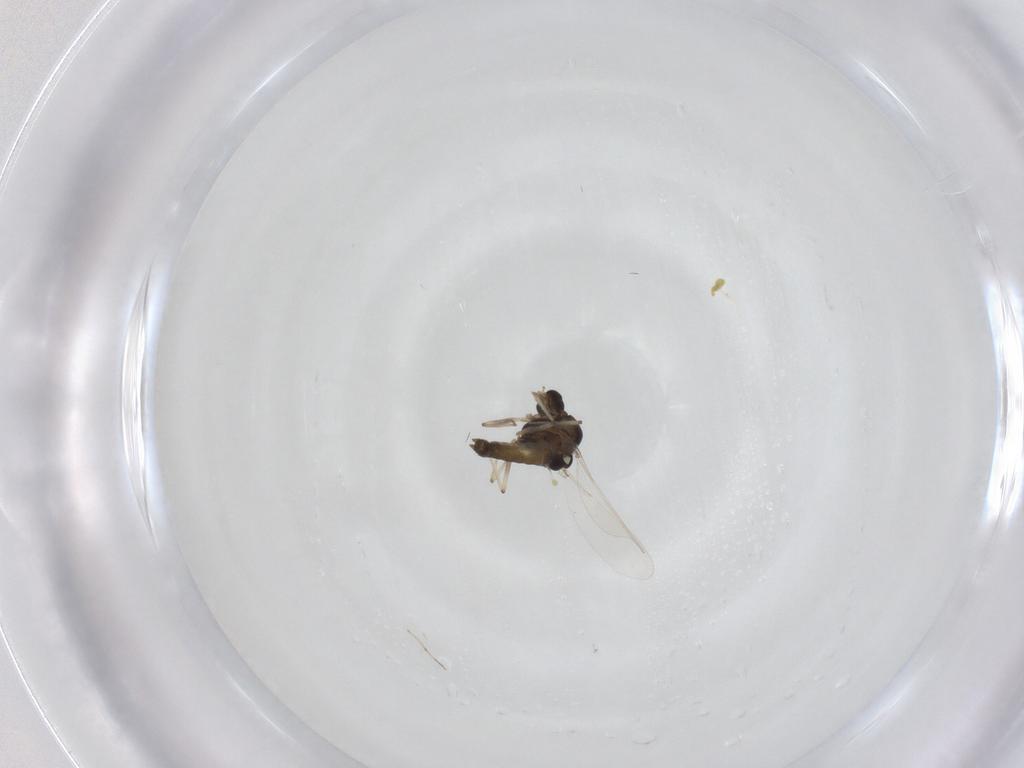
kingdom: Animalia
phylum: Arthropoda
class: Insecta
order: Diptera
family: Chironomidae
